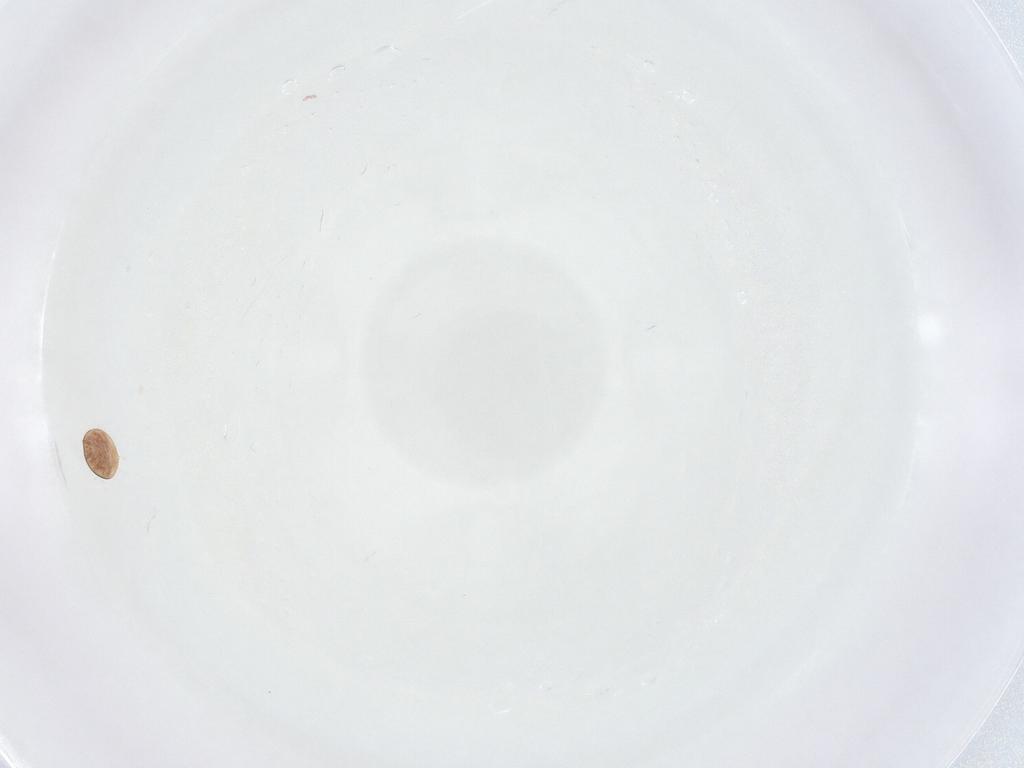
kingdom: Animalia
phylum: Arthropoda
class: Arachnida
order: Mesostigmata
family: Trematuridae
